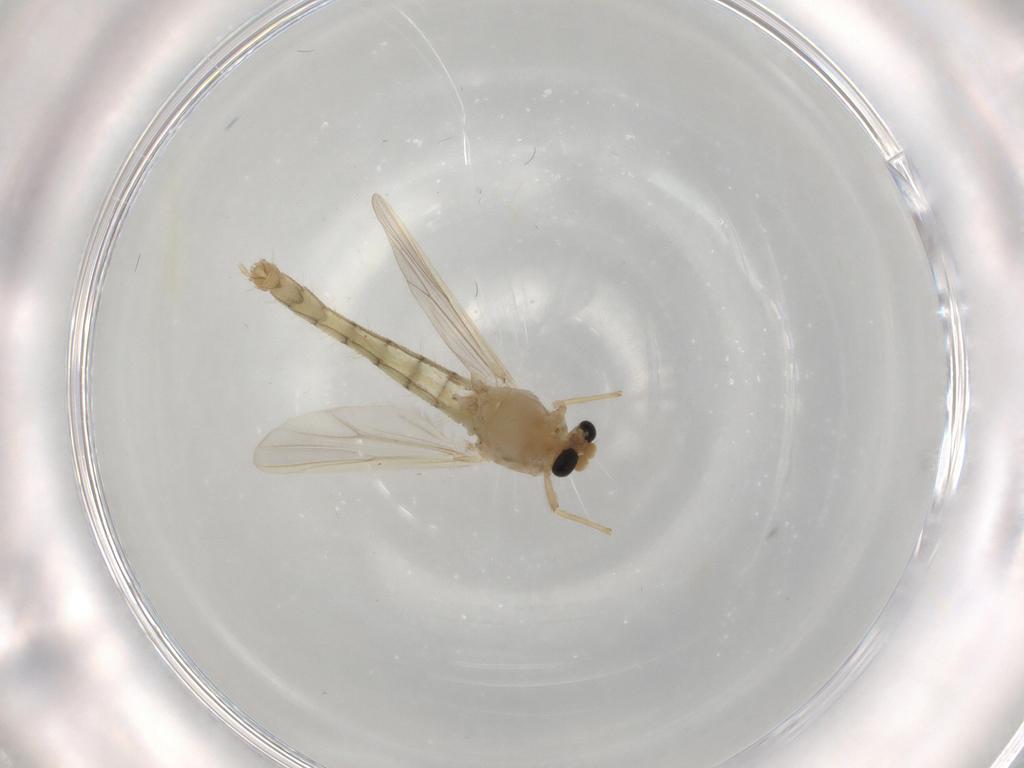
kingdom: Animalia
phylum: Arthropoda
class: Insecta
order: Diptera
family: Chironomidae
